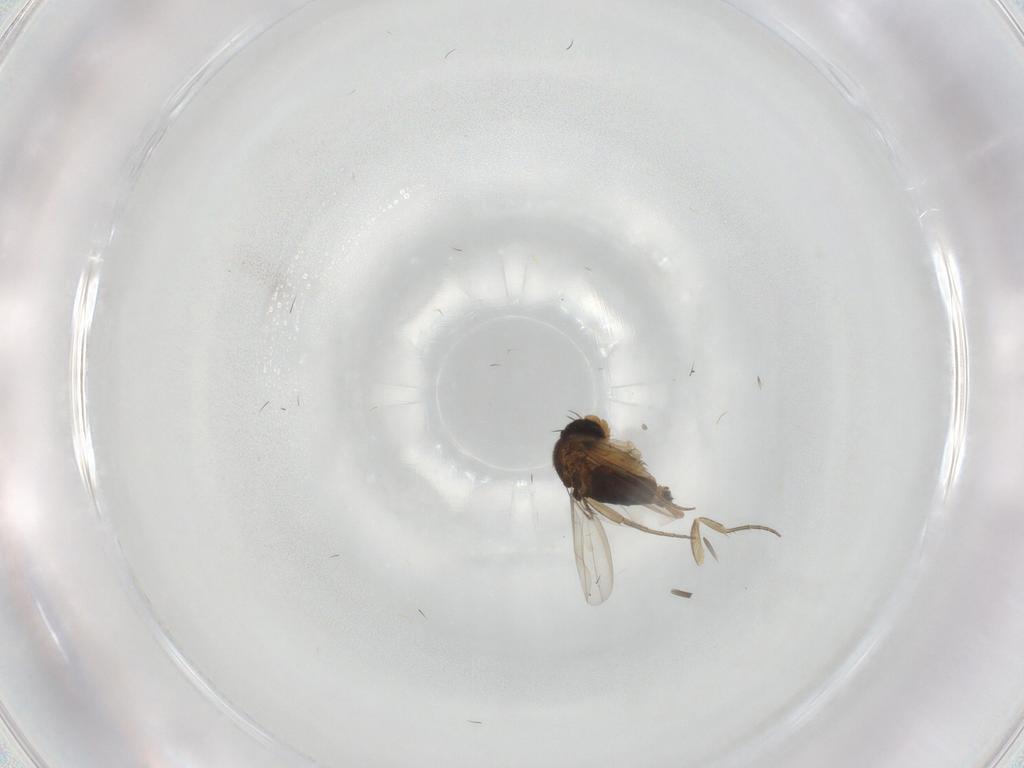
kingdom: Animalia
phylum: Arthropoda
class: Insecta
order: Diptera
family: Phoridae
